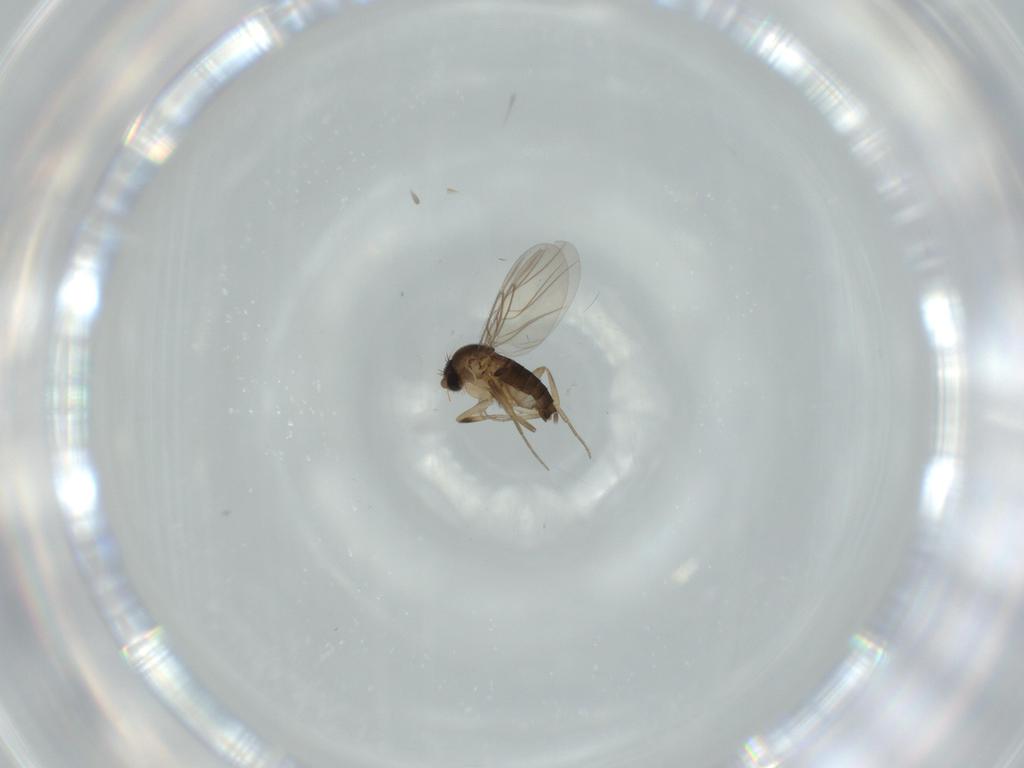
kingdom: Animalia
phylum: Arthropoda
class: Insecta
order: Diptera
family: Phoridae
